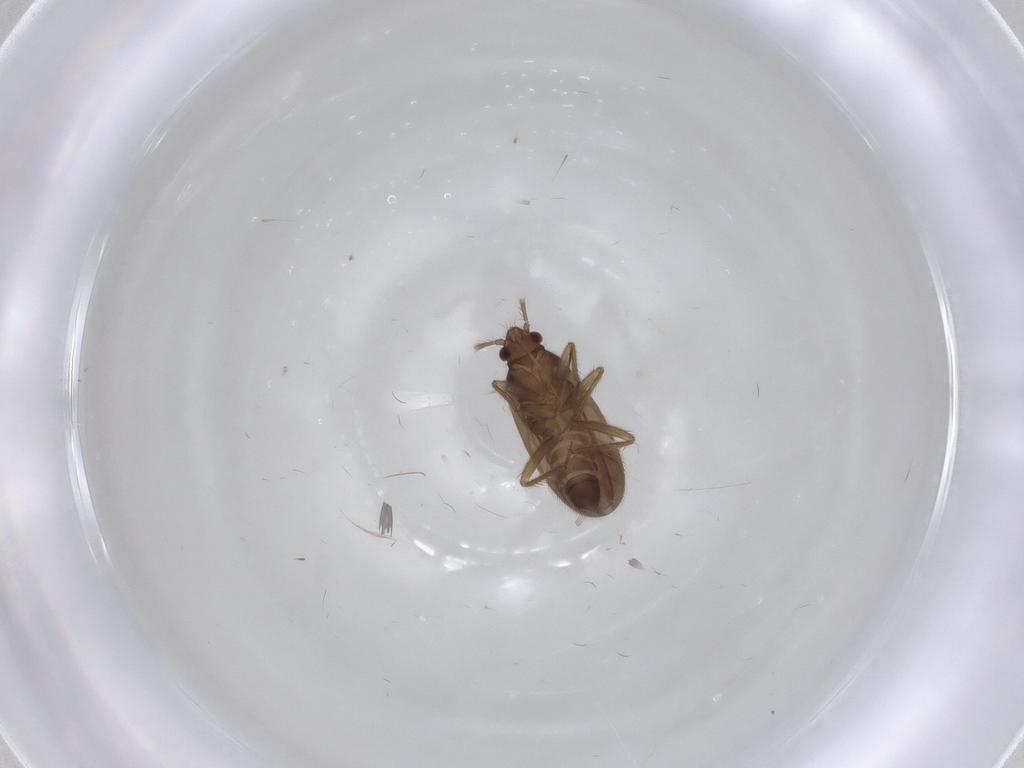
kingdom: Animalia
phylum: Arthropoda
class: Insecta
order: Hemiptera
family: Ceratocombidae
